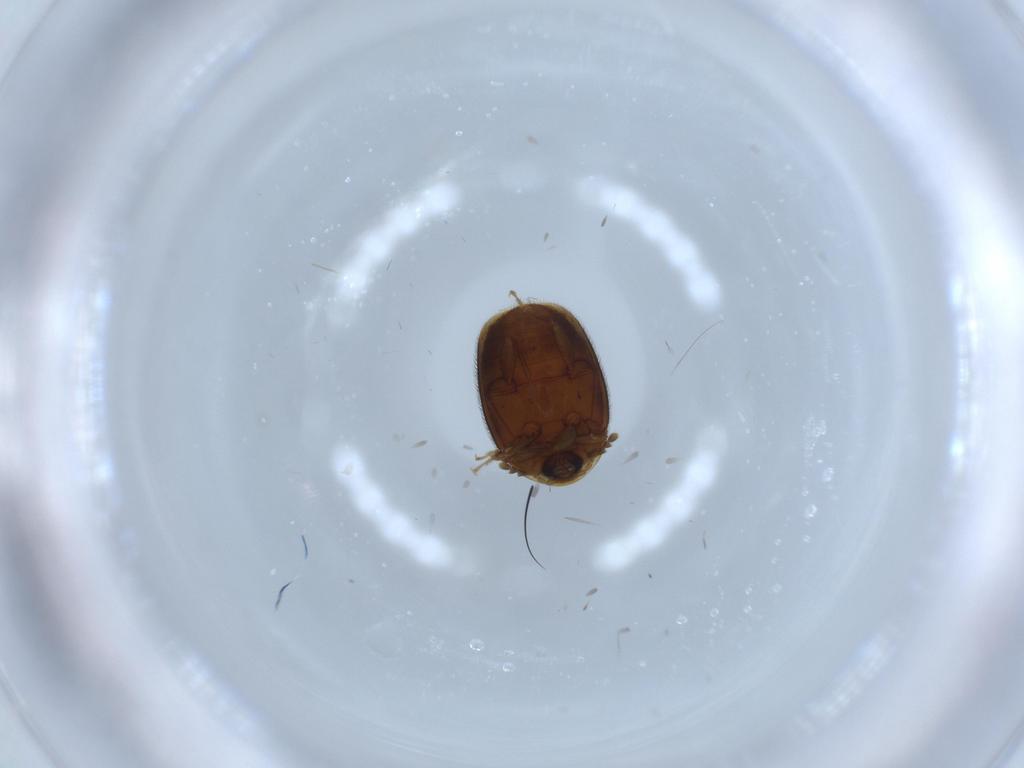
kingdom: Animalia
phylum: Arthropoda
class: Insecta
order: Coleoptera
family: Corylophidae
